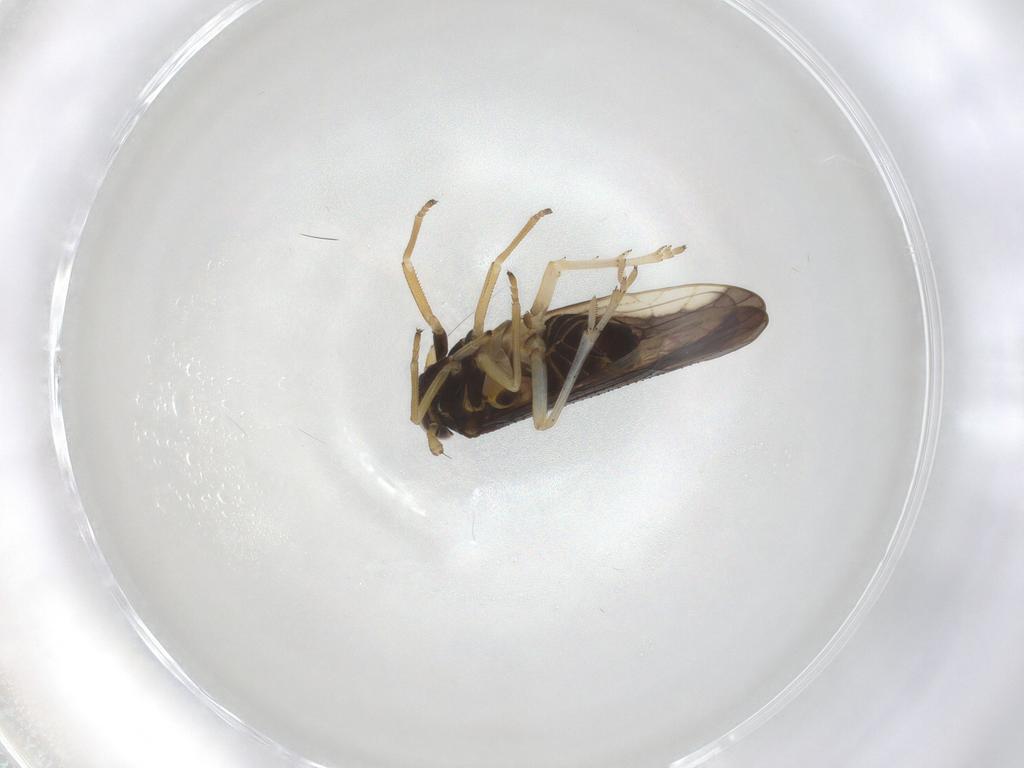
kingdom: Animalia
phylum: Arthropoda
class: Insecta
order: Hemiptera
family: Delphacidae
